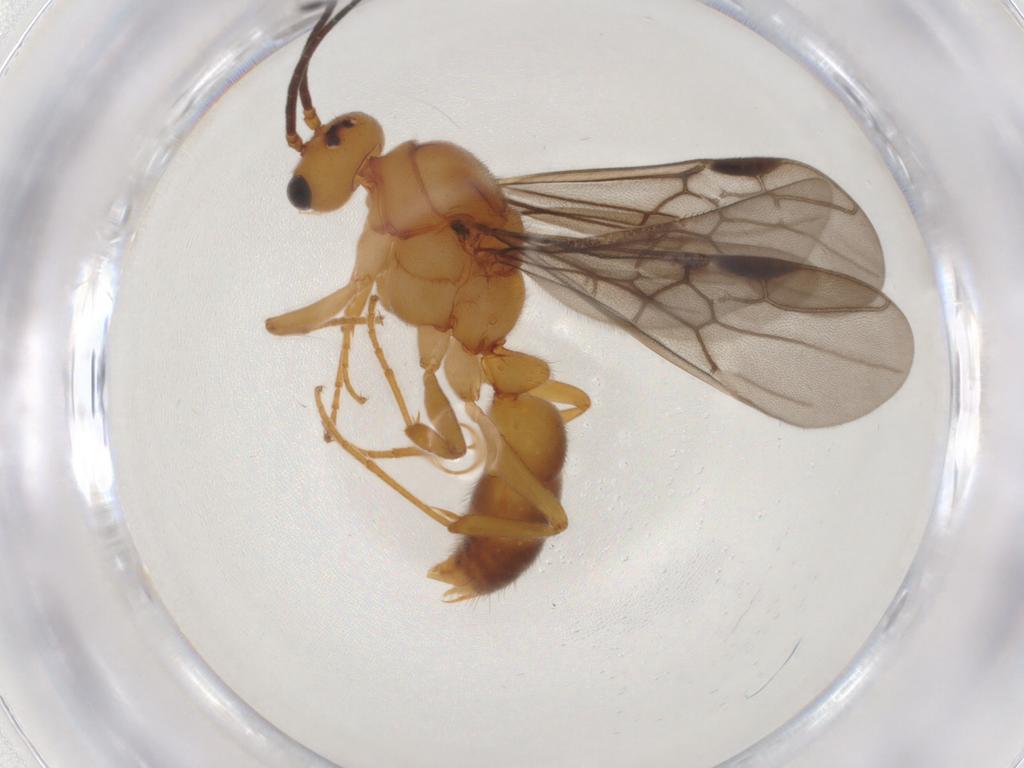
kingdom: Animalia
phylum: Arthropoda
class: Insecta
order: Hymenoptera
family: Formicidae
